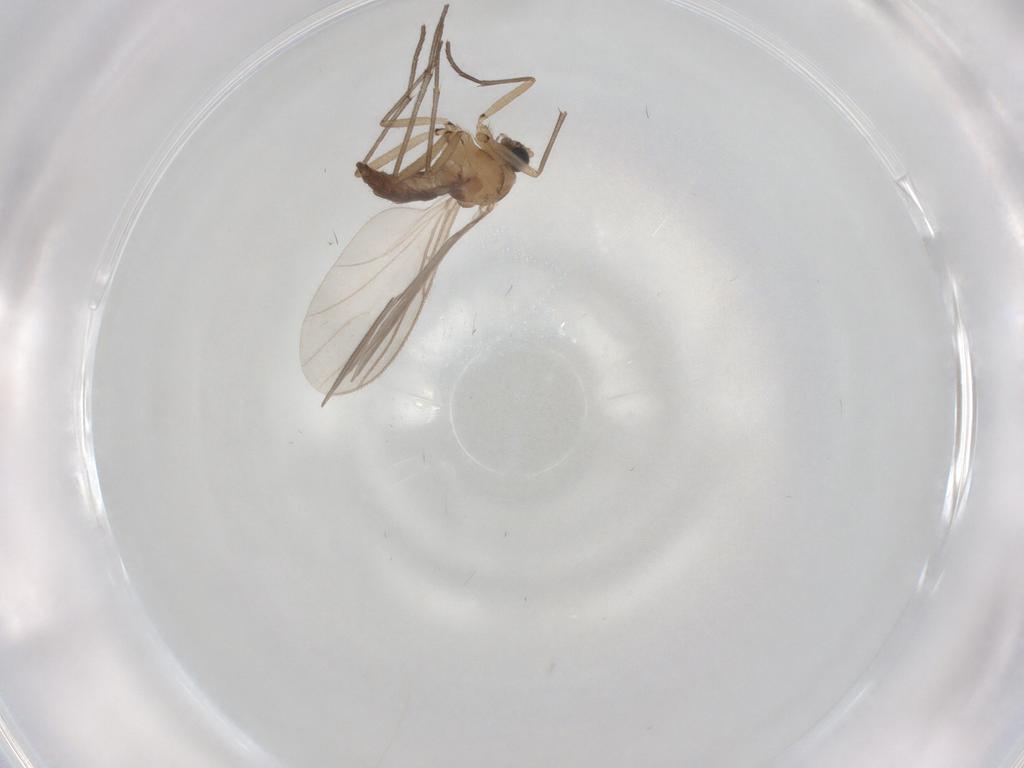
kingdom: Animalia
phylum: Arthropoda
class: Insecta
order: Diptera
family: Sciaridae
